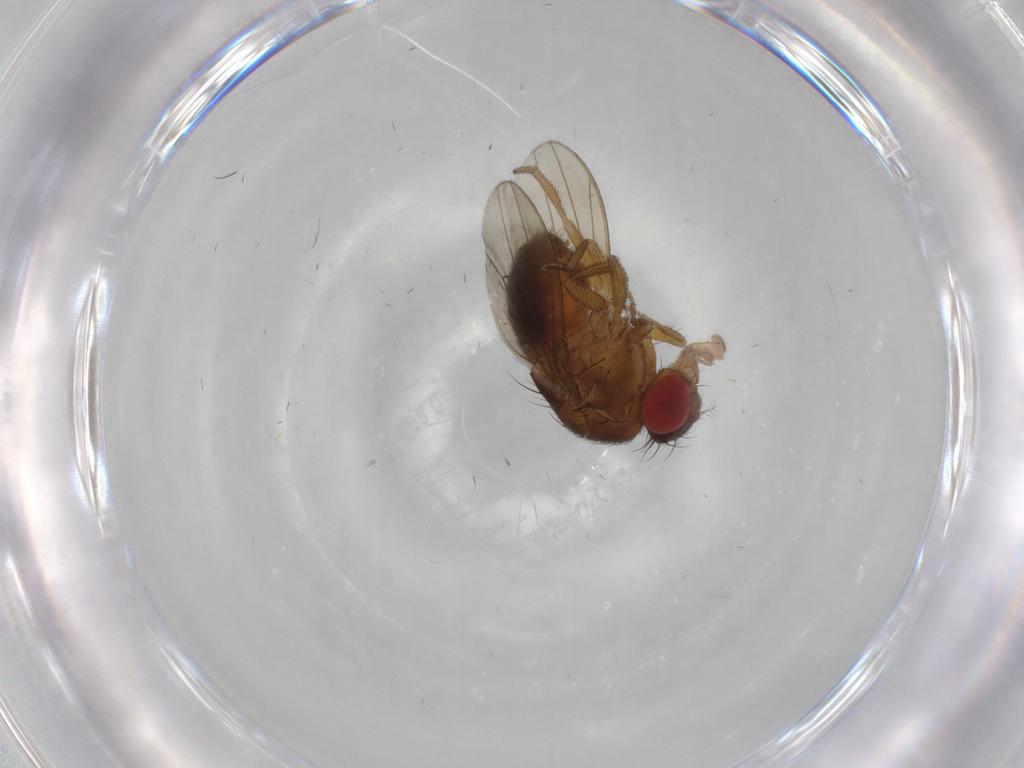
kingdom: Animalia
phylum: Arthropoda
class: Insecta
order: Diptera
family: Drosophilidae
